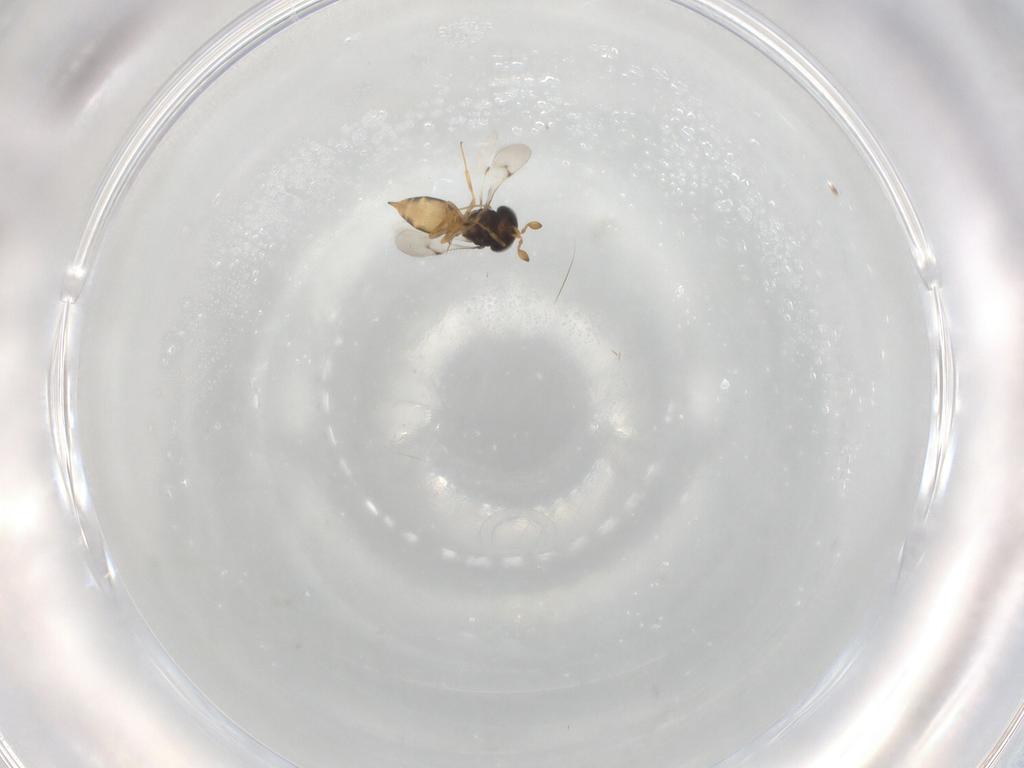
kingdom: Animalia
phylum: Arthropoda
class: Insecta
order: Hymenoptera
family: Scelionidae
